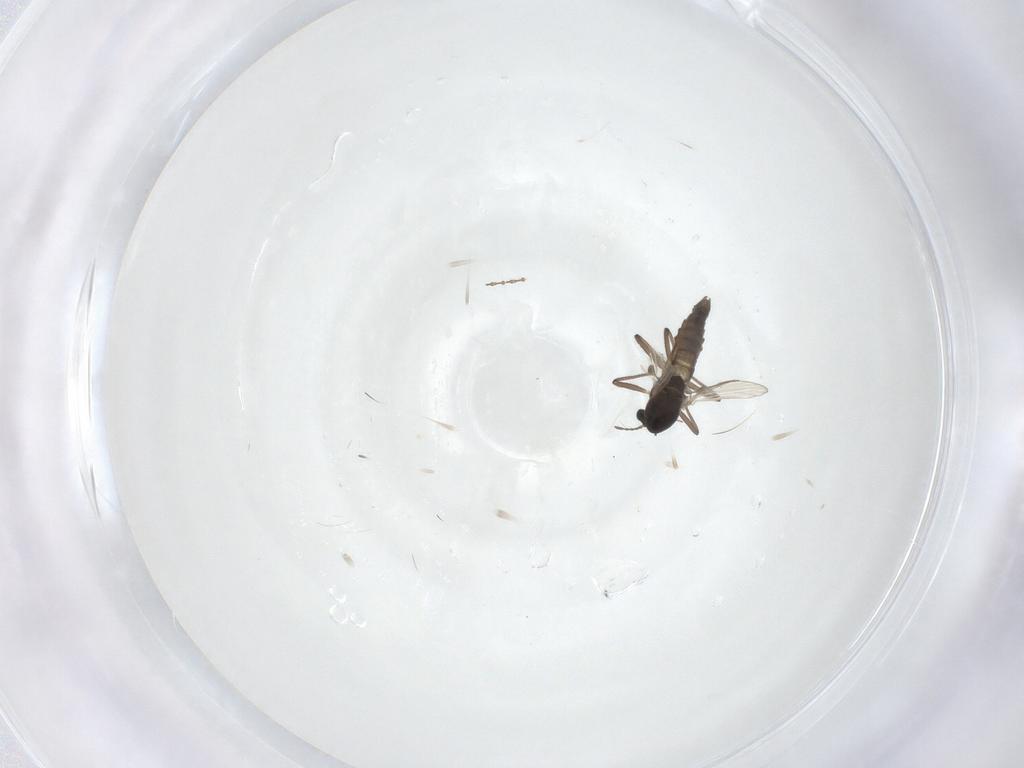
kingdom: Animalia
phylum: Arthropoda
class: Insecta
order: Diptera
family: Chironomidae
